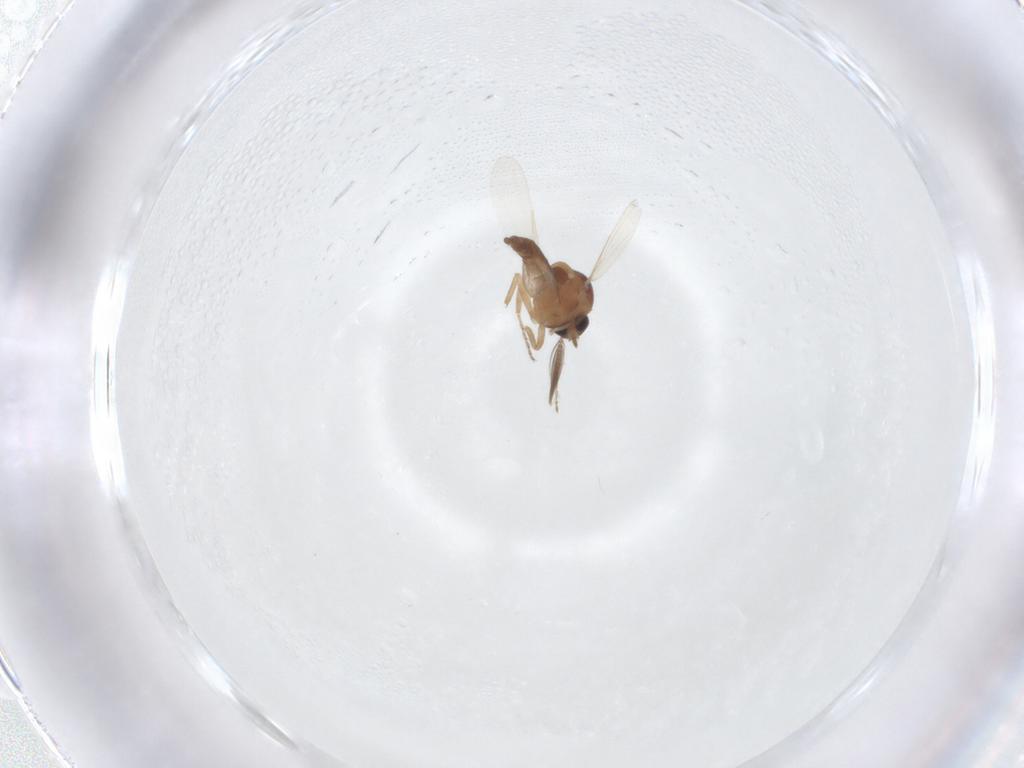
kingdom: Animalia
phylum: Arthropoda
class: Insecta
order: Diptera
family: Ceratopogonidae
